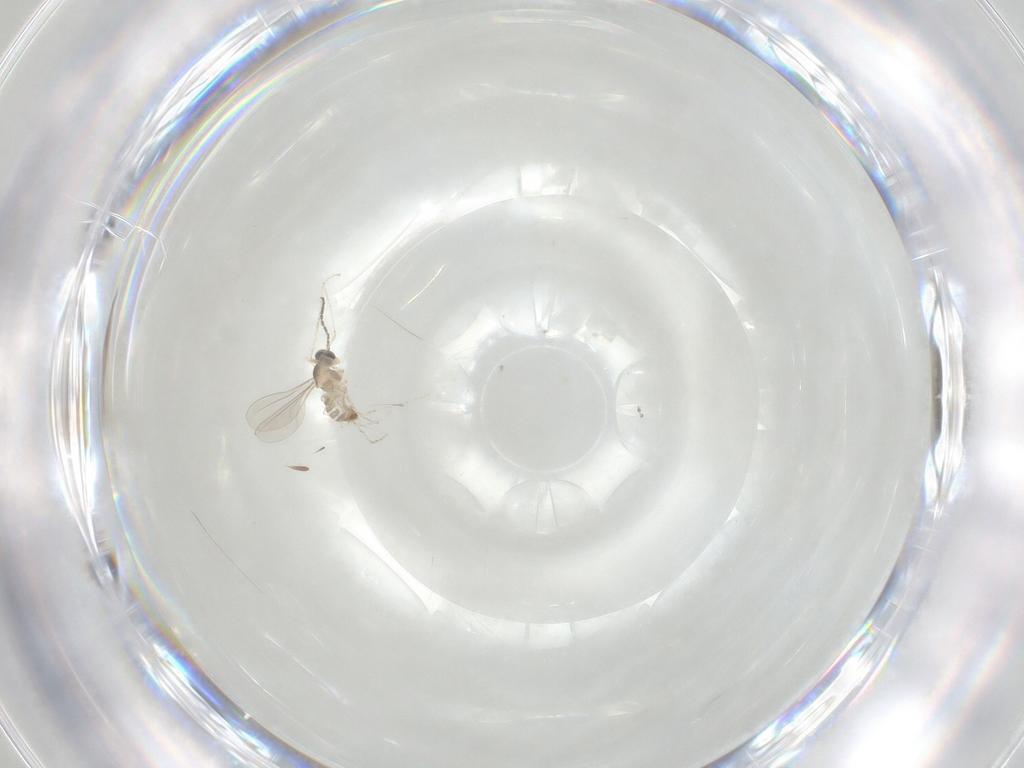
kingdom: Animalia
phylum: Arthropoda
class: Insecta
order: Diptera
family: Cecidomyiidae
